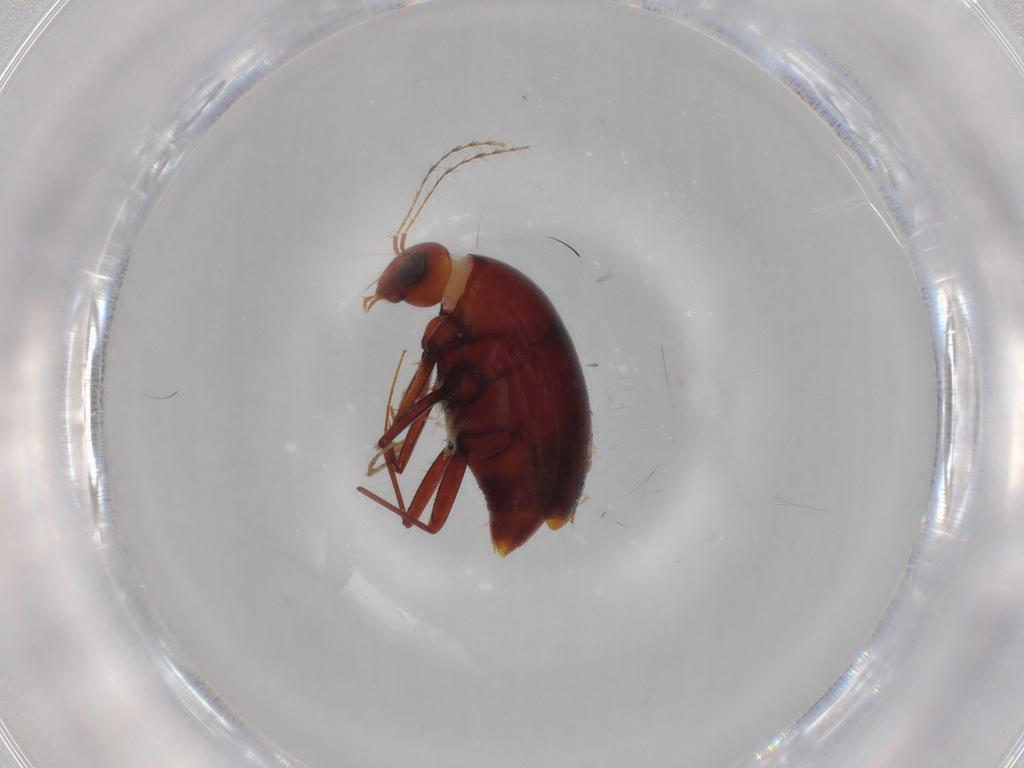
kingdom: Animalia
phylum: Arthropoda
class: Insecta
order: Coleoptera
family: Staphylinidae
